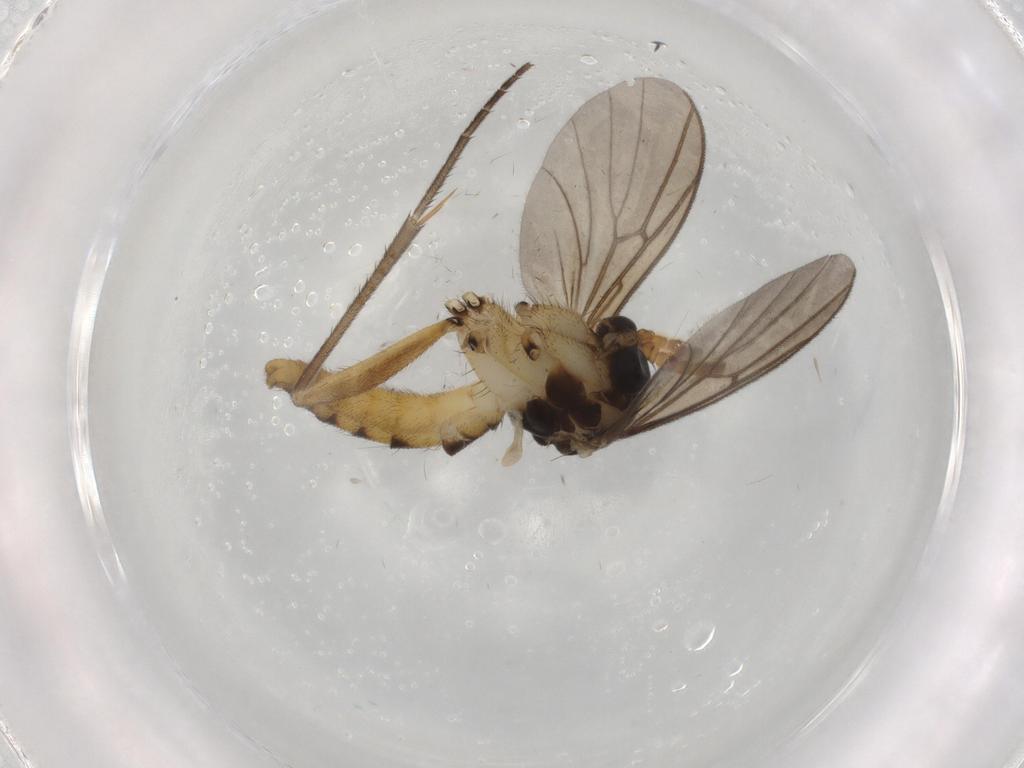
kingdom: Animalia
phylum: Arthropoda
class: Insecta
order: Diptera
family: Cecidomyiidae
